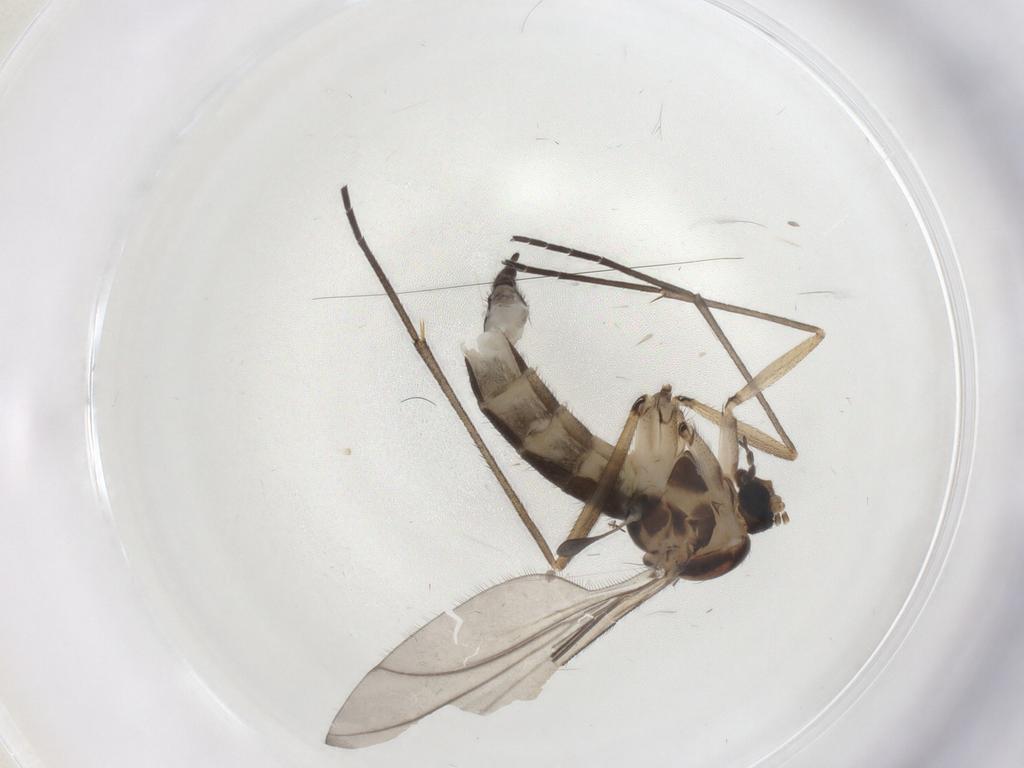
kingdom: Animalia
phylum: Arthropoda
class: Insecta
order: Diptera
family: Sciaridae
